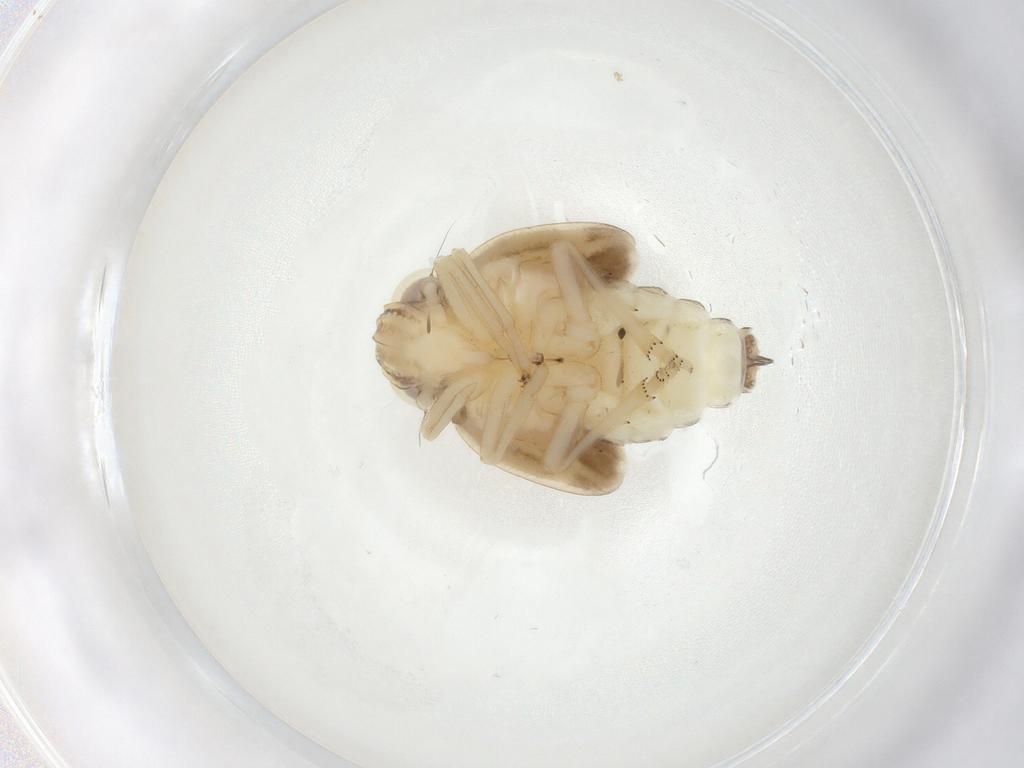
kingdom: Animalia
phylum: Arthropoda
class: Insecta
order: Hemiptera
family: Nogodinidae
